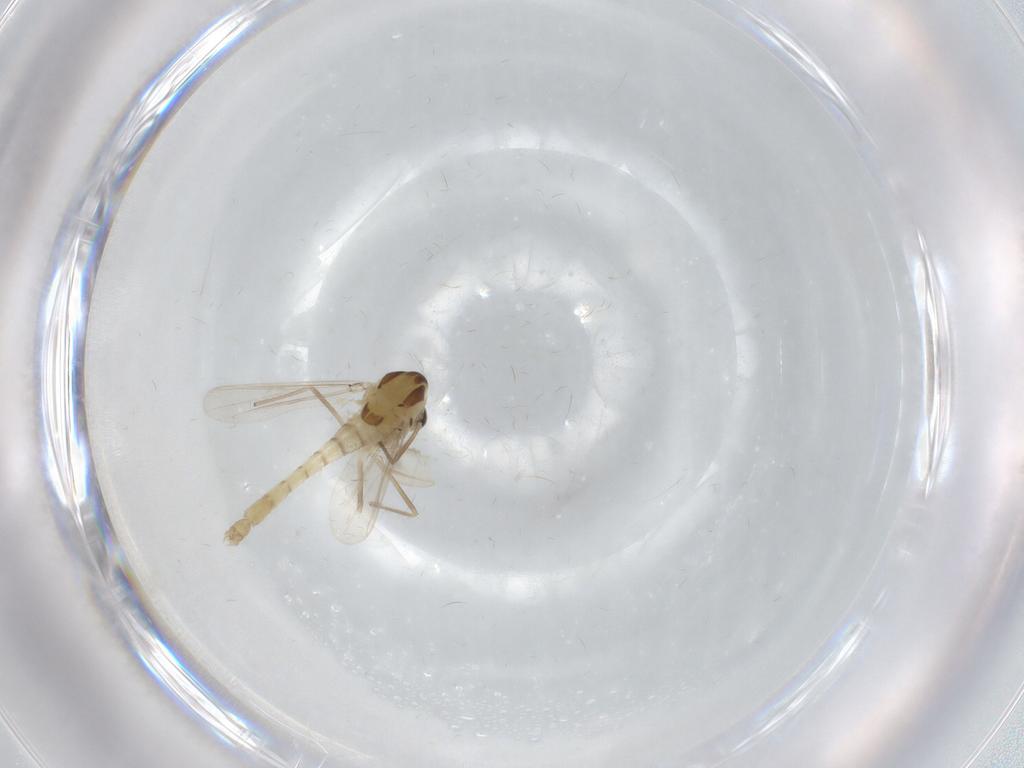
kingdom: Animalia
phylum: Arthropoda
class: Insecta
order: Diptera
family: Chironomidae
